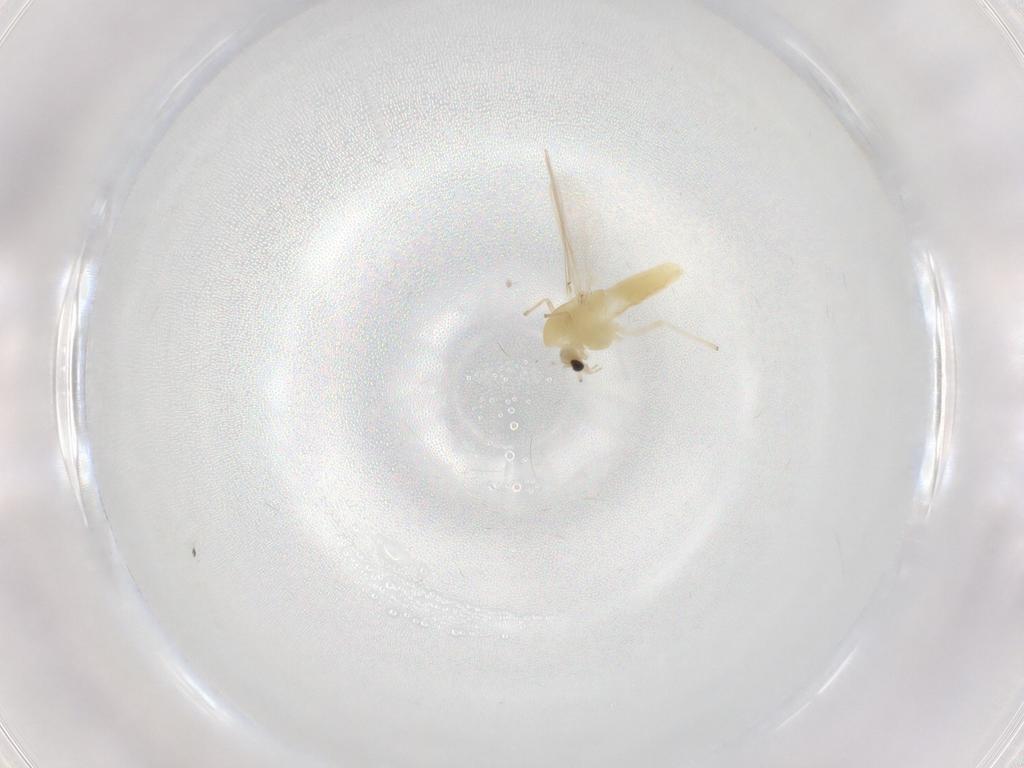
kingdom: Animalia
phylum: Arthropoda
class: Insecta
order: Diptera
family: Chironomidae
